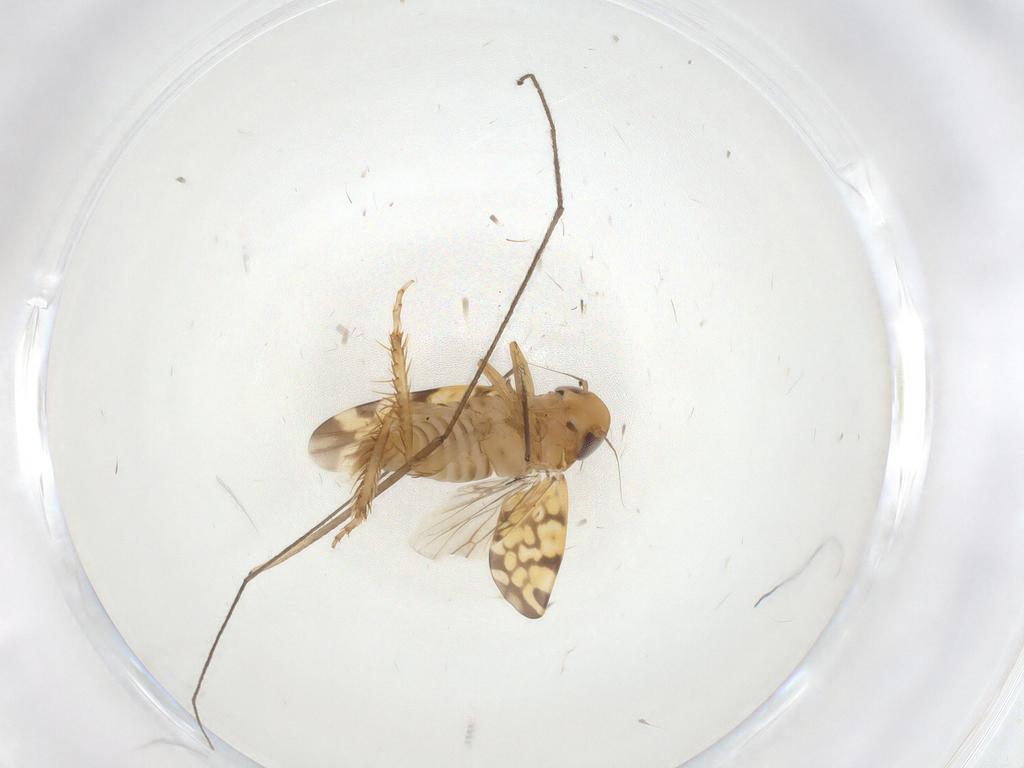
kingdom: Animalia
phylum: Arthropoda
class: Insecta
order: Hemiptera
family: Cicadellidae
